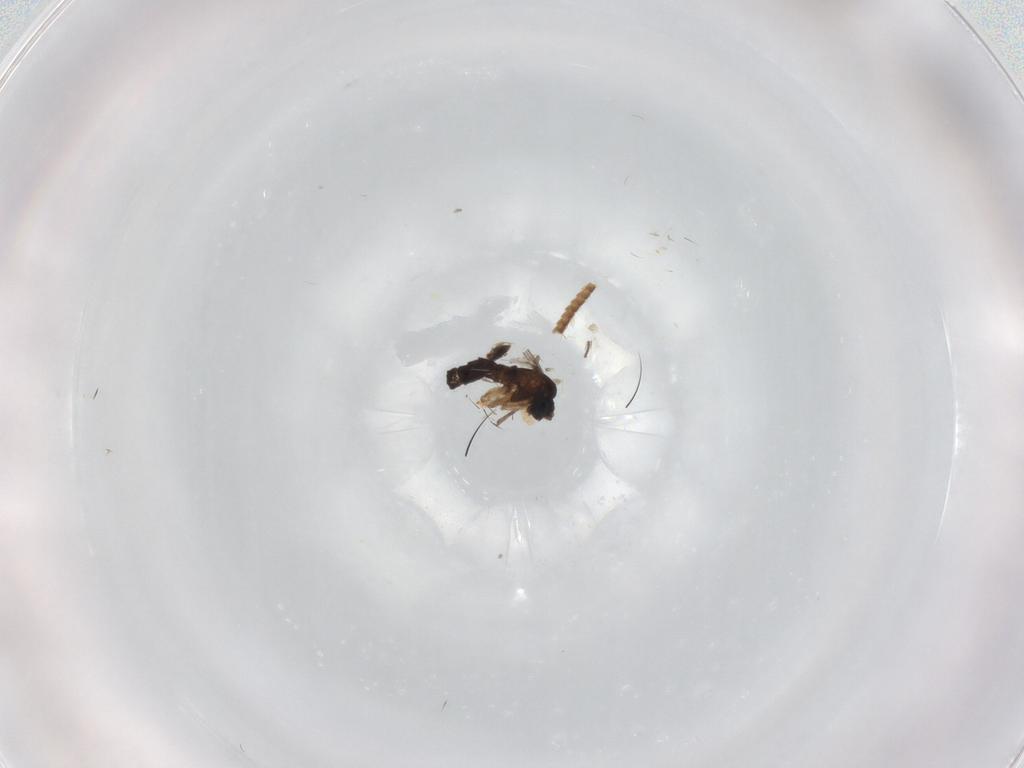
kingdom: Animalia
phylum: Arthropoda
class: Insecta
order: Diptera
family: Sciaridae
